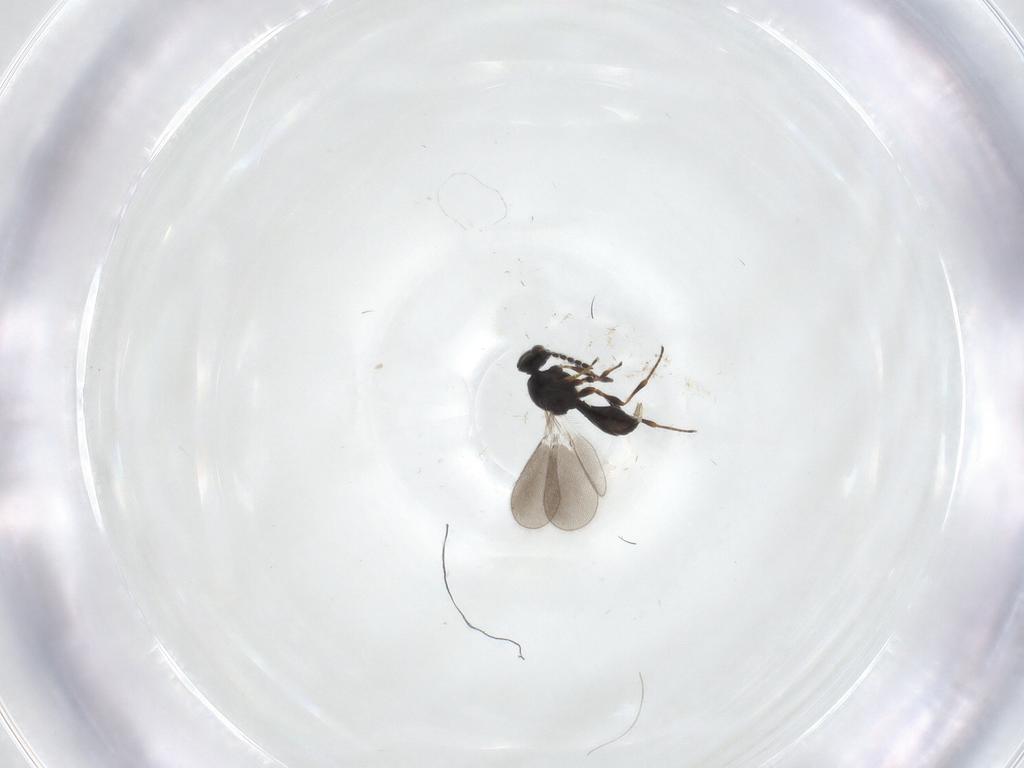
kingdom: Animalia
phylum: Arthropoda
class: Insecta
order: Hymenoptera
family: Platygastridae
